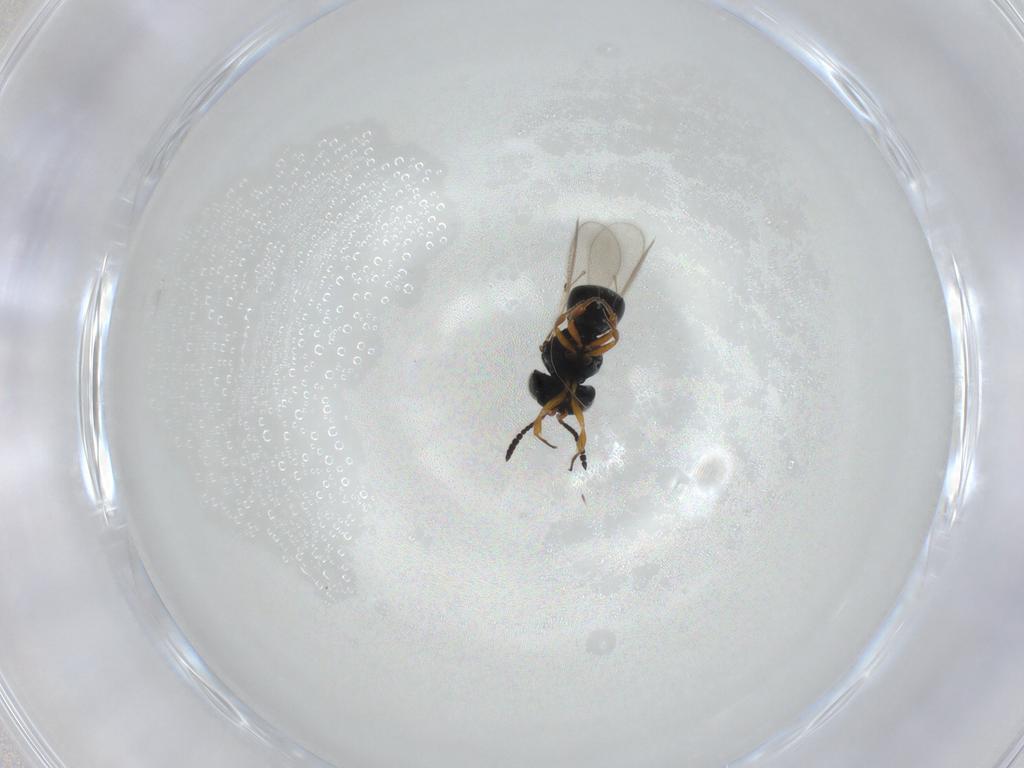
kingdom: Animalia
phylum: Arthropoda
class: Insecta
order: Hymenoptera
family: Scelionidae
